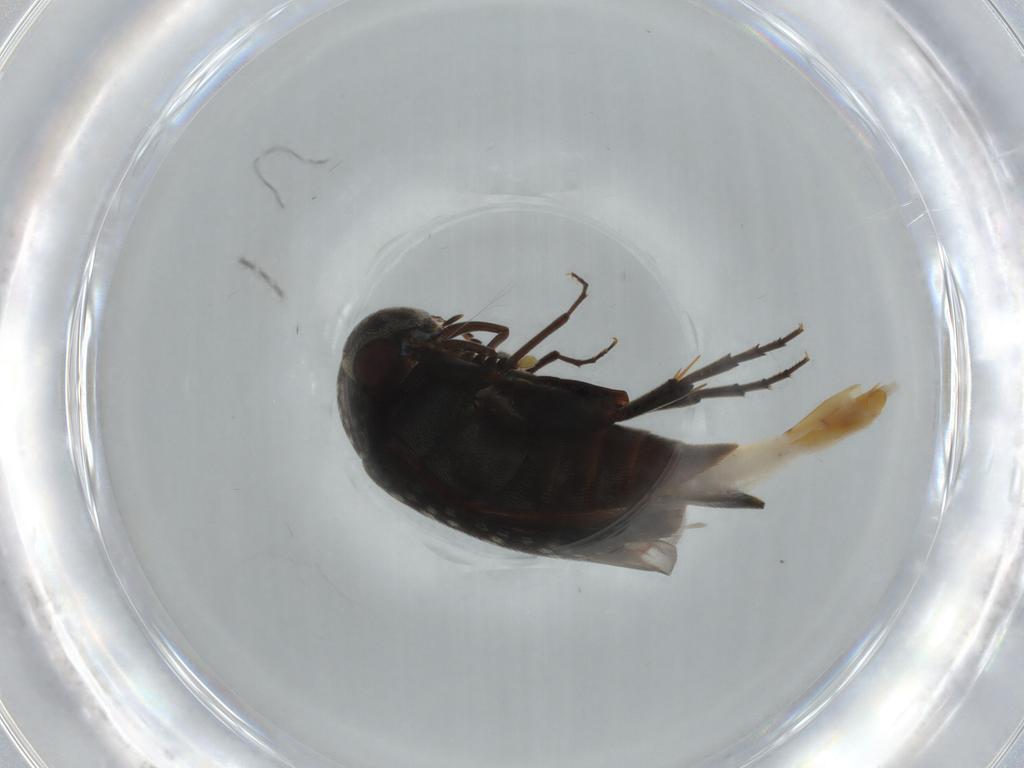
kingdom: Animalia
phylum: Arthropoda
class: Insecta
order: Coleoptera
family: Mordellidae
